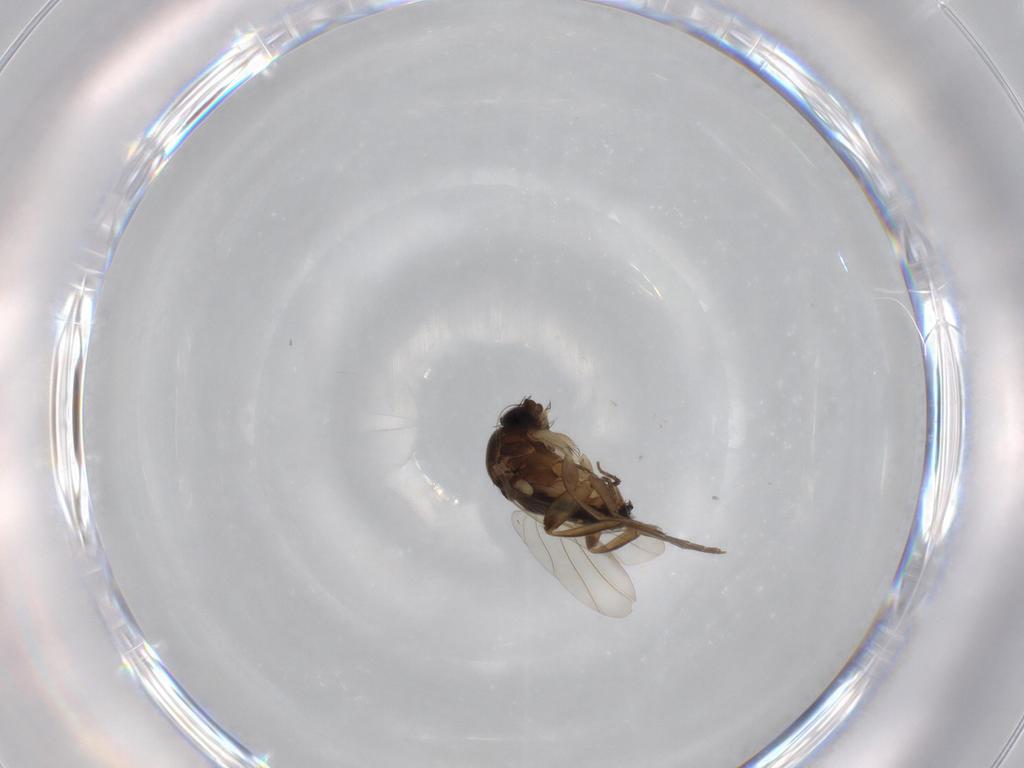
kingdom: Animalia
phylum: Arthropoda
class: Insecta
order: Diptera
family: Phoridae
